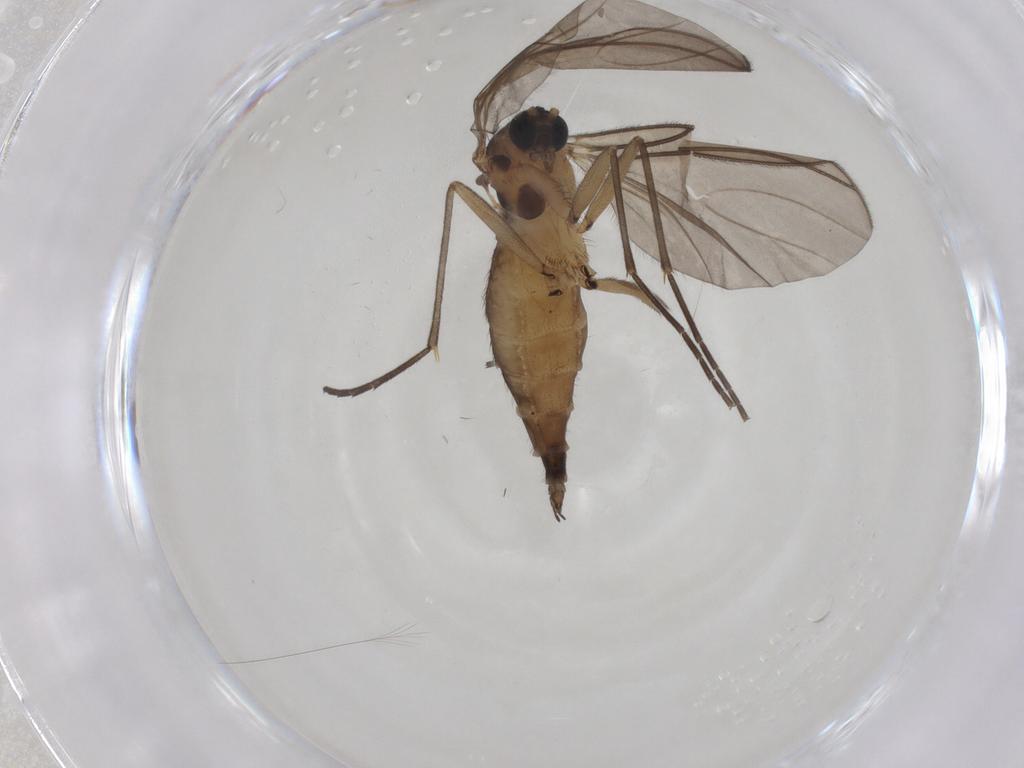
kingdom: Animalia
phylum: Arthropoda
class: Insecta
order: Diptera
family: Sciaridae
